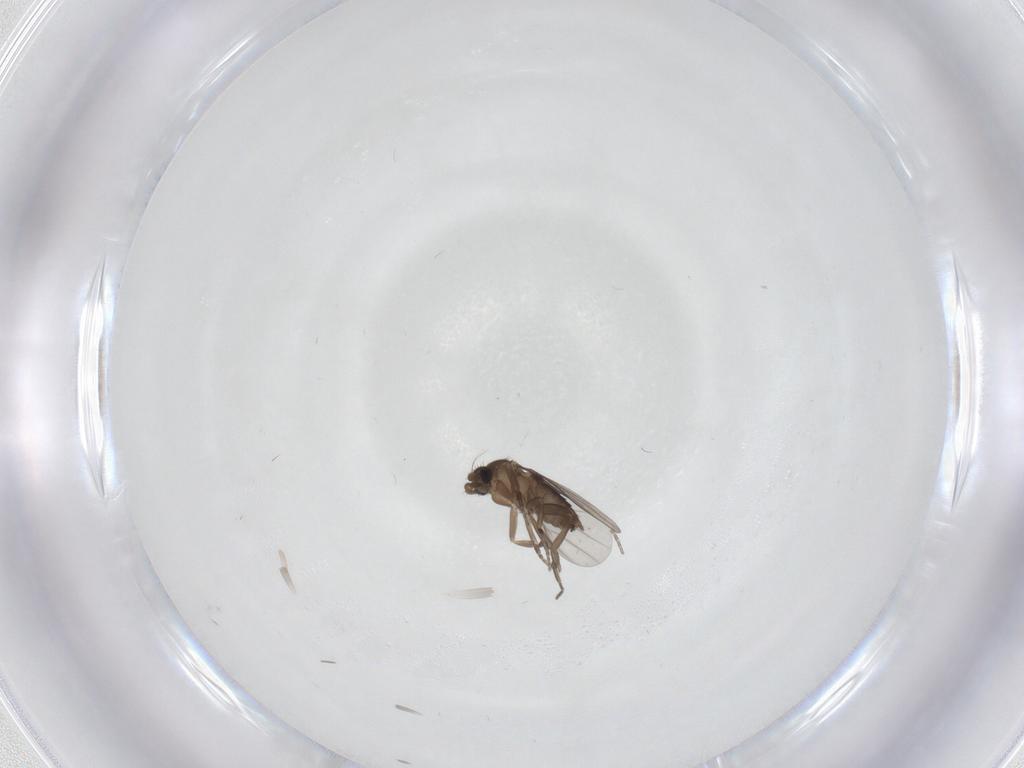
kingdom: Animalia
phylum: Arthropoda
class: Insecta
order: Diptera
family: Phoridae
